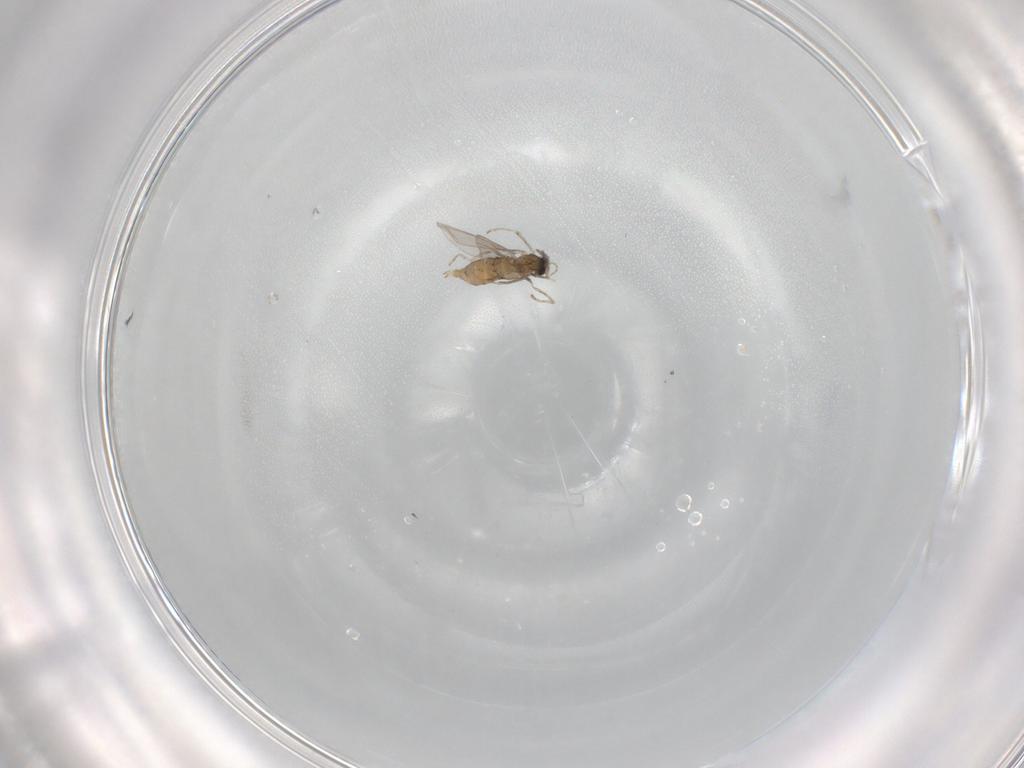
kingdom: Animalia
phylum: Arthropoda
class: Insecta
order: Diptera
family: Cecidomyiidae
